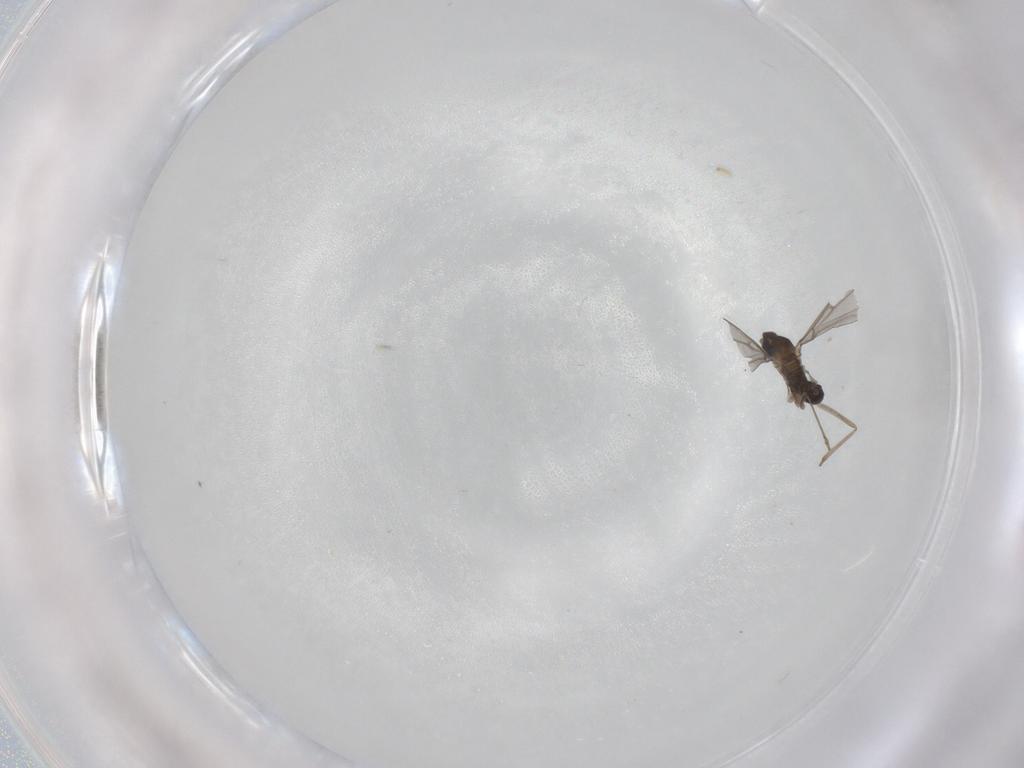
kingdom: Animalia
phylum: Arthropoda
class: Insecta
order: Diptera
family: Cecidomyiidae
